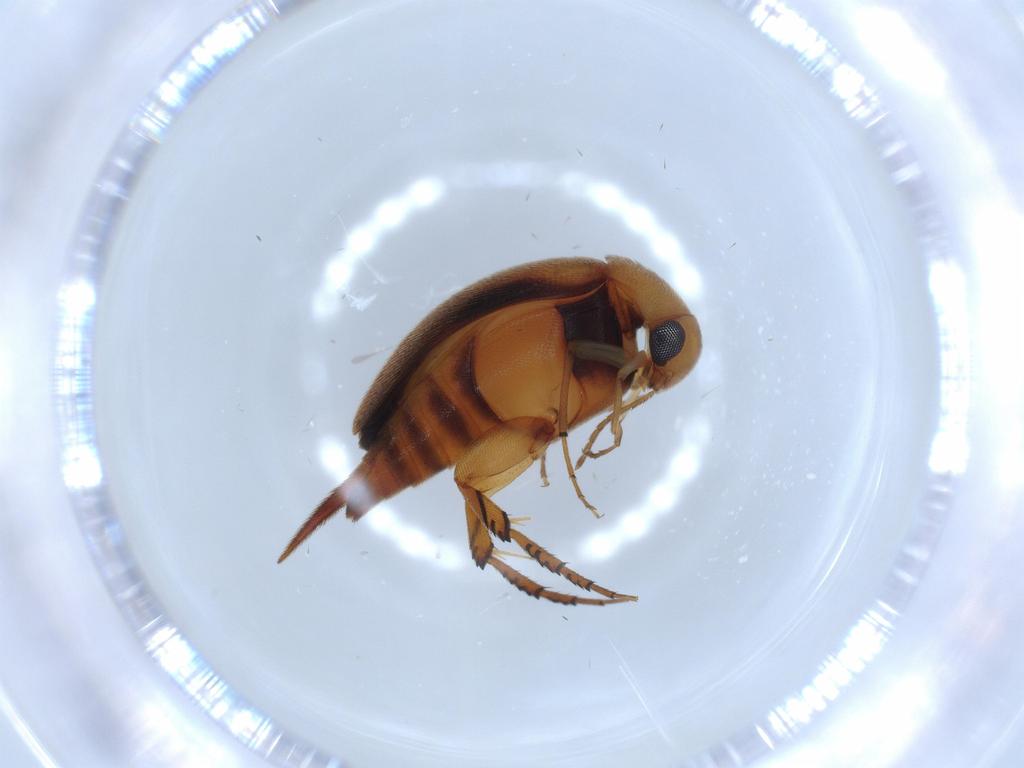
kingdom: Animalia
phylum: Arthropoda
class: Insecta
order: Coleoptera
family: Mordellidae
